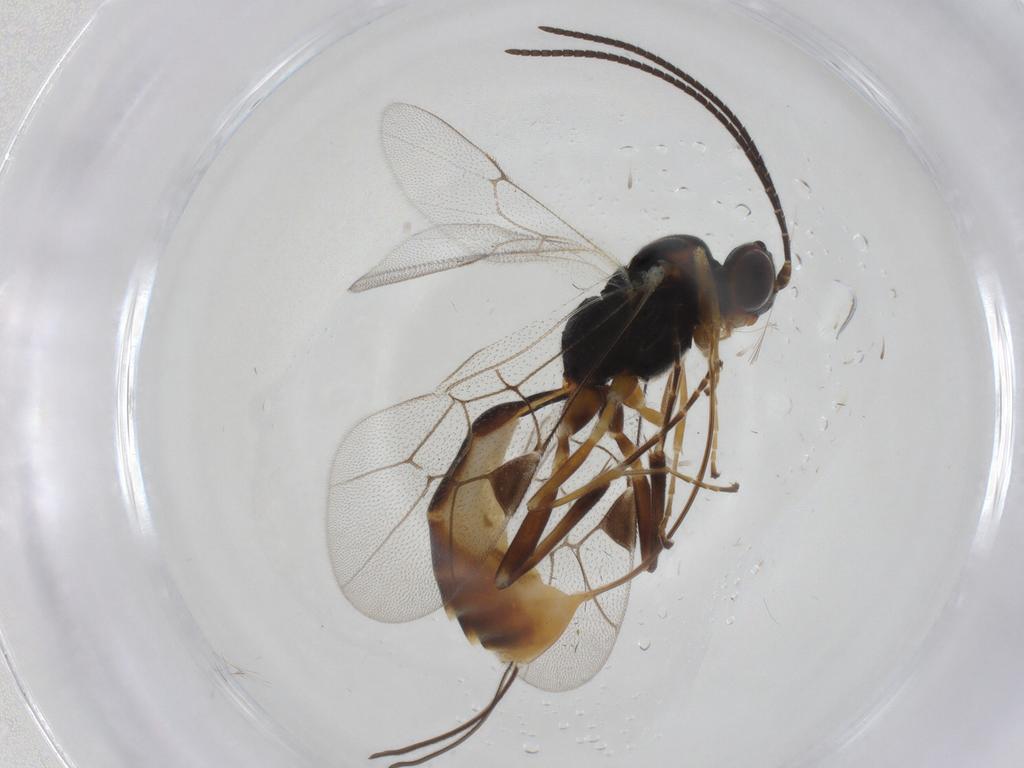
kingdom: Animalia
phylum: Arthropoda
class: Insecta
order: Hymenoptera
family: Ichneumonidae
